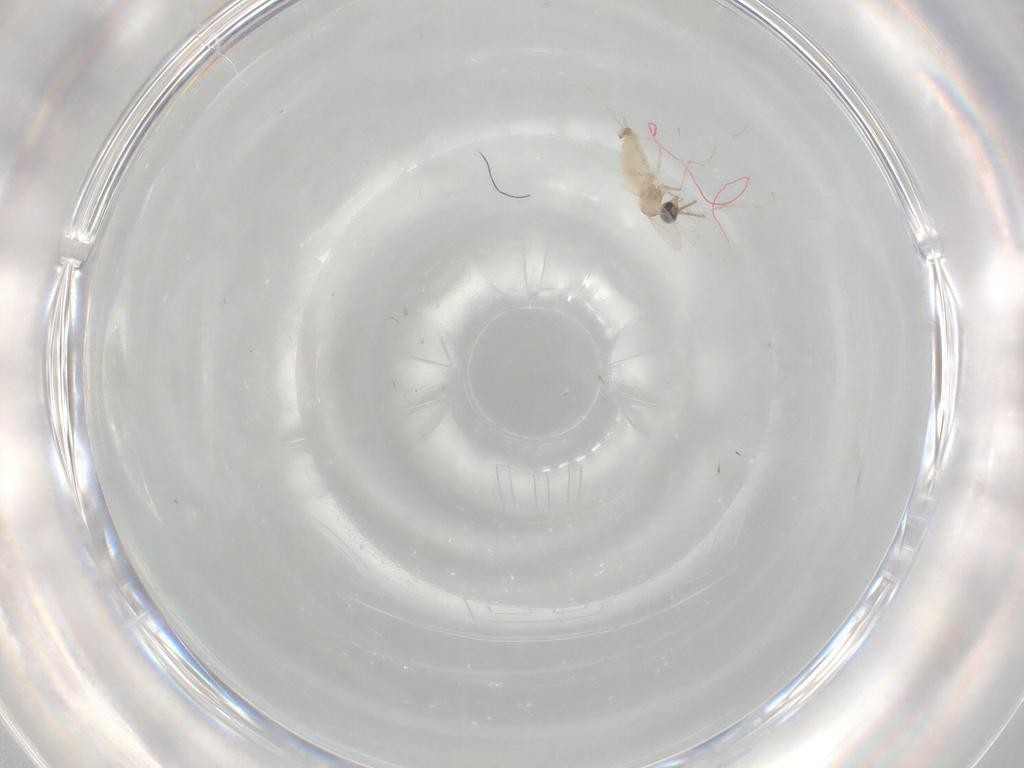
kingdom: Animalia
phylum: Arthropoda
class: Insecta
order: Diptera
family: Cecidomyiidae
